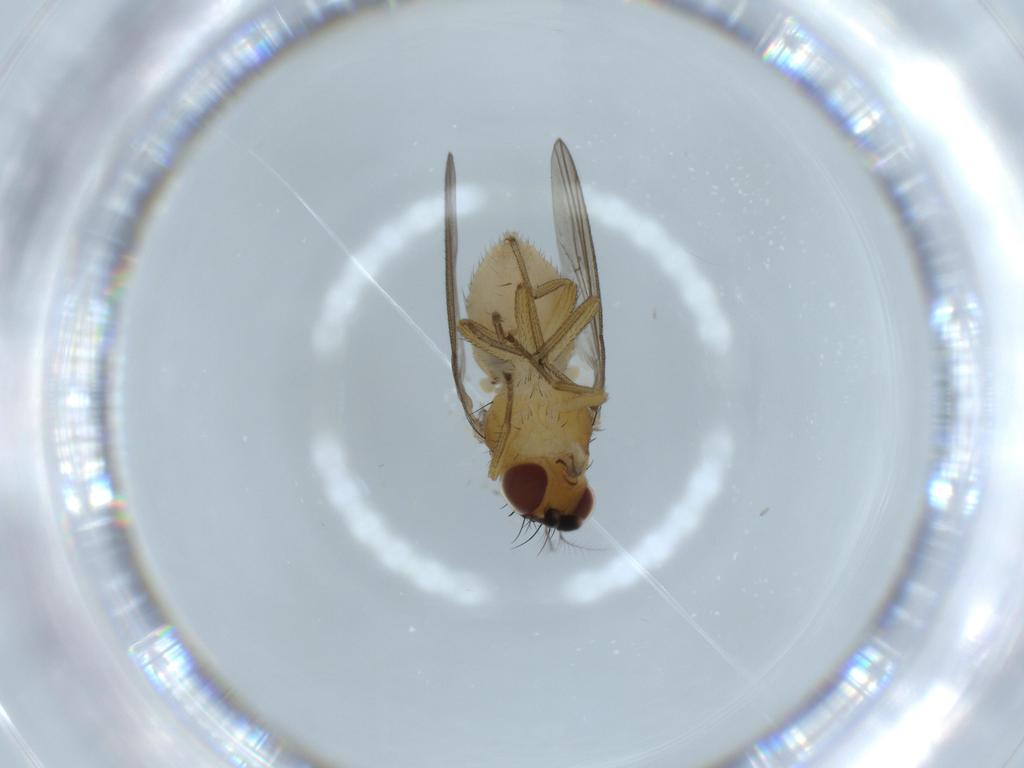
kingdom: Animalia
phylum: Arthropoda
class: Insecta
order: Diptera
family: Lauxaniidae
